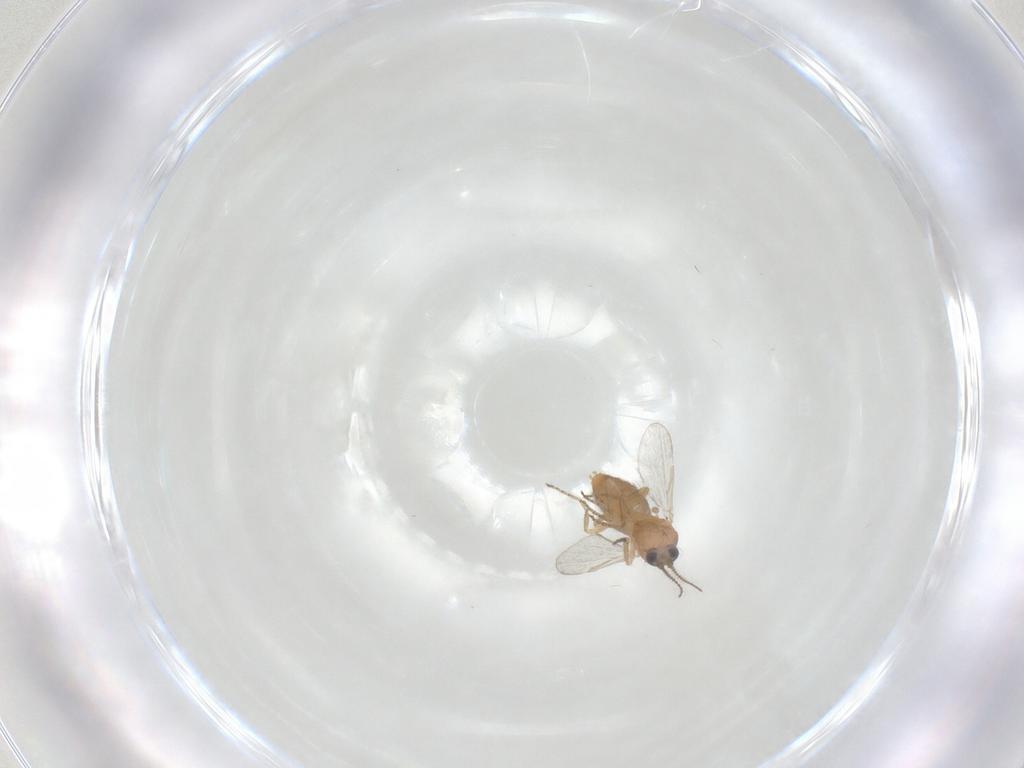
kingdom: Animalia
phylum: Arthropoda
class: Insecta
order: Diptera
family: Ceratopogonidae
